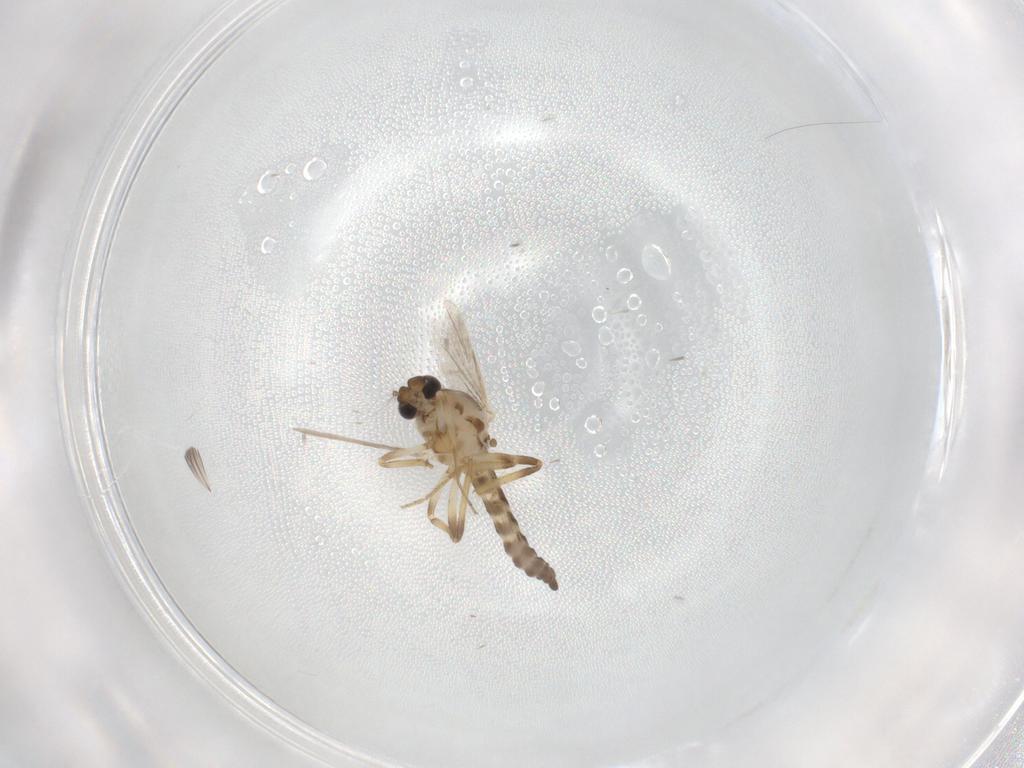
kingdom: Animalia
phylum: Arthropoda
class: Insecta
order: Diptera
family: Ceratopogonidae
